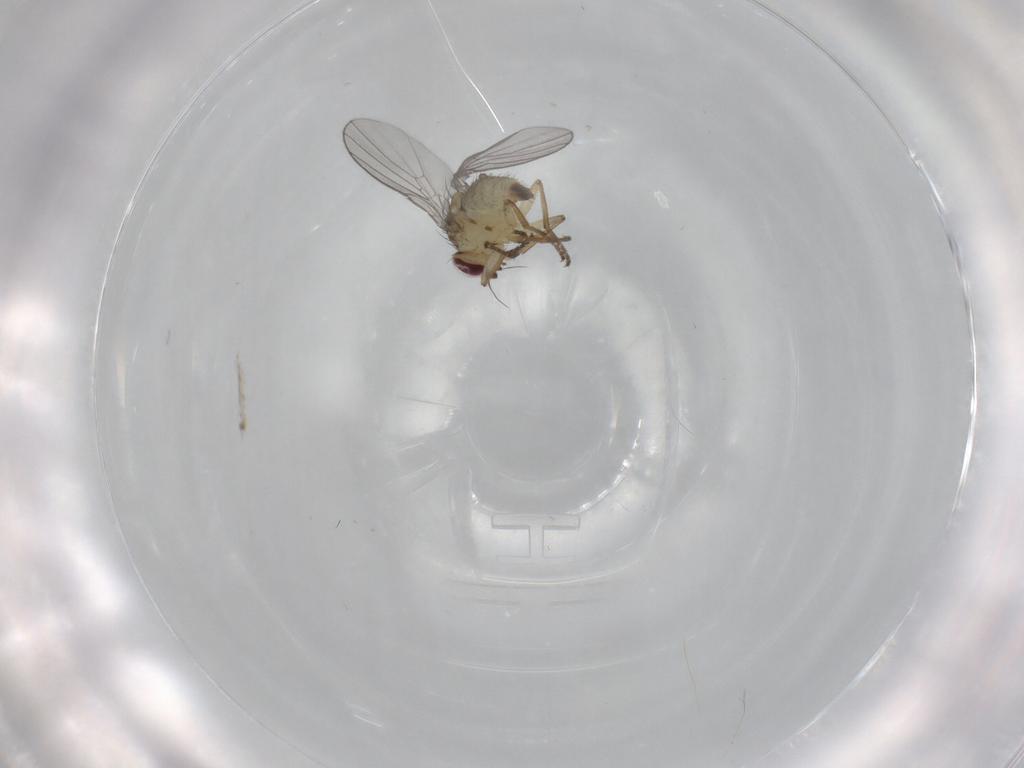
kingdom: Animalia
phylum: Arthropoda
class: Insecta
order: Diptera
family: Agromyzidae
